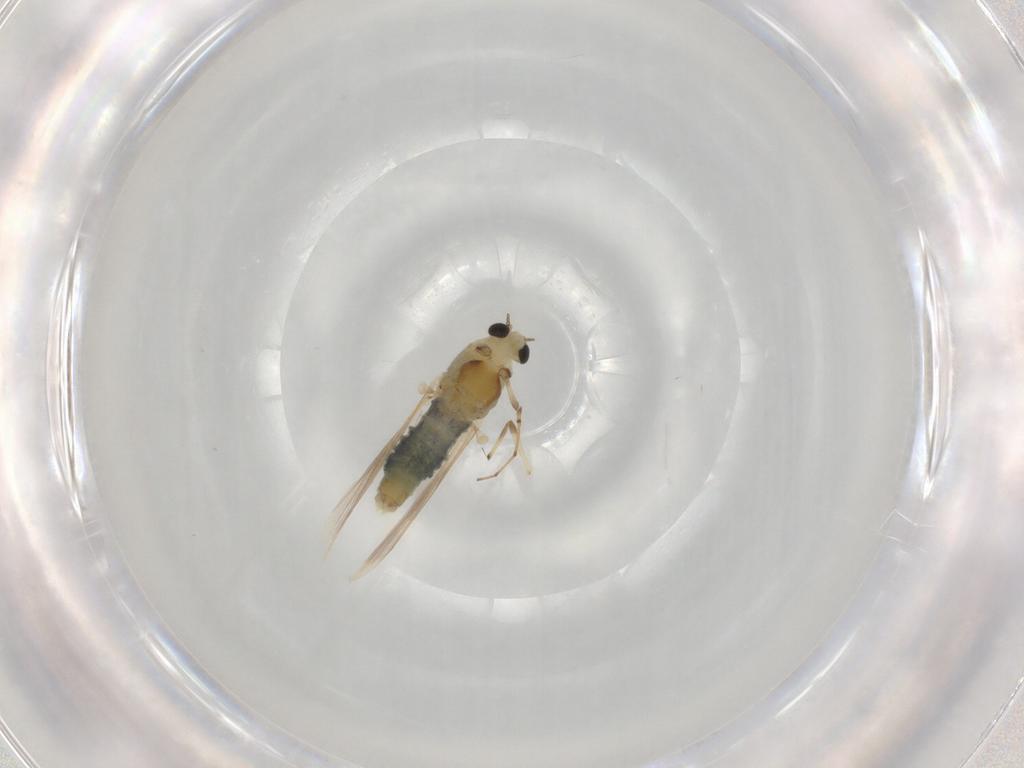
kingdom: Animalia
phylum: Arthropoda
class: Insecta
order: Diptera
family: Chironomidae
